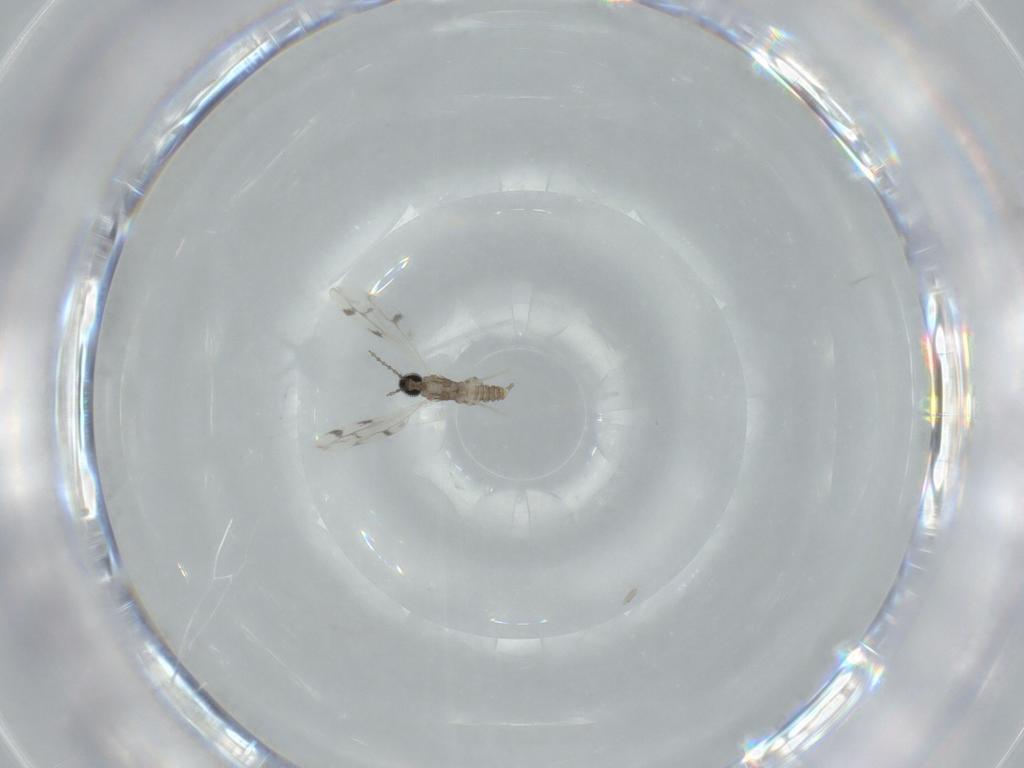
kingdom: Animalia
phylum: Arthropoda
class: Insecta
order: Diptera
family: Cecidomyiidae
